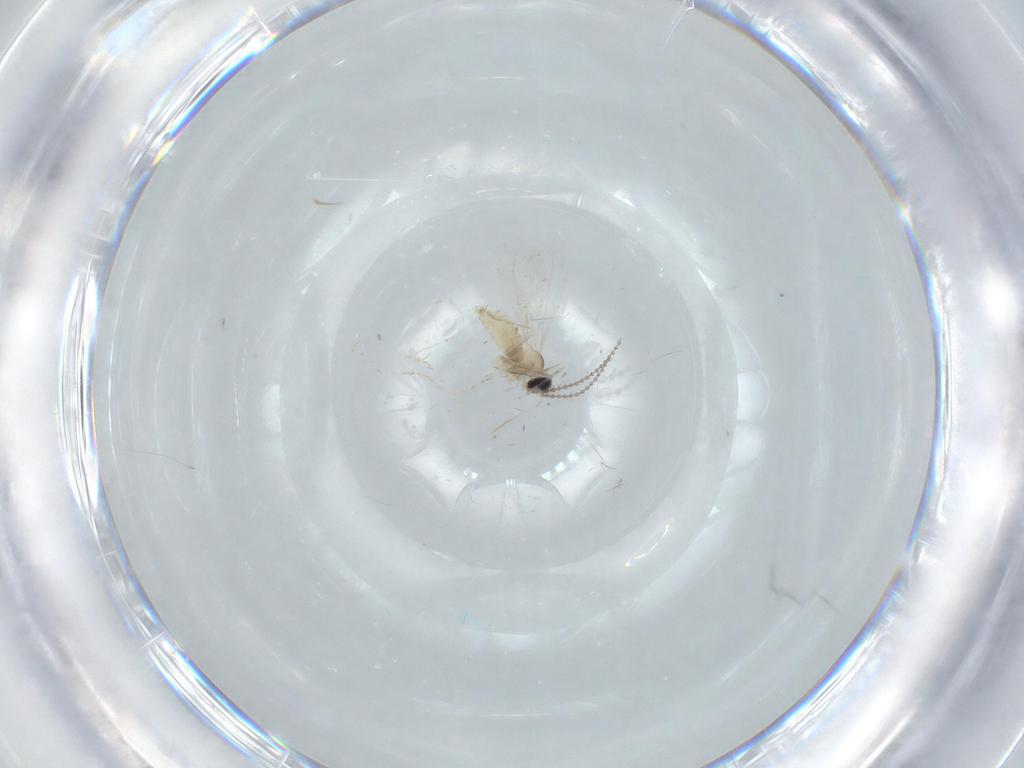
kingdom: Animalia
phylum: Arthropoda
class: Insecta
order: Diptera
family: Cecidomyiidae
